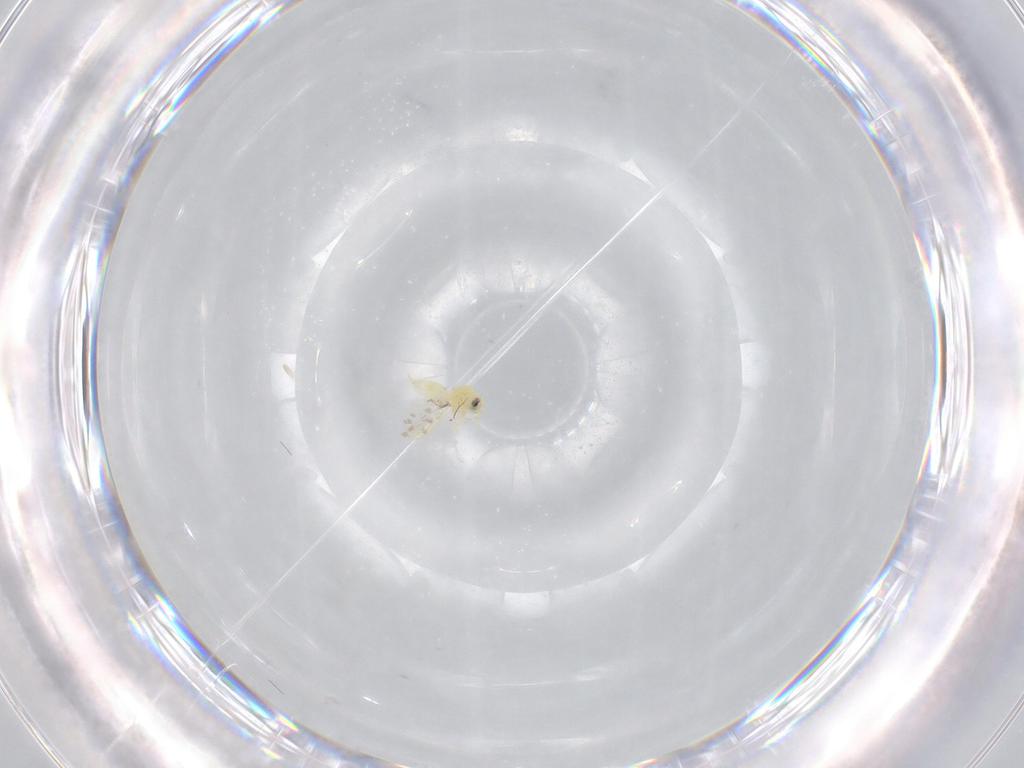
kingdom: Animalia
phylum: Arthropoda
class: Insecta
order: Hemiptera
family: Aleyrodidae
